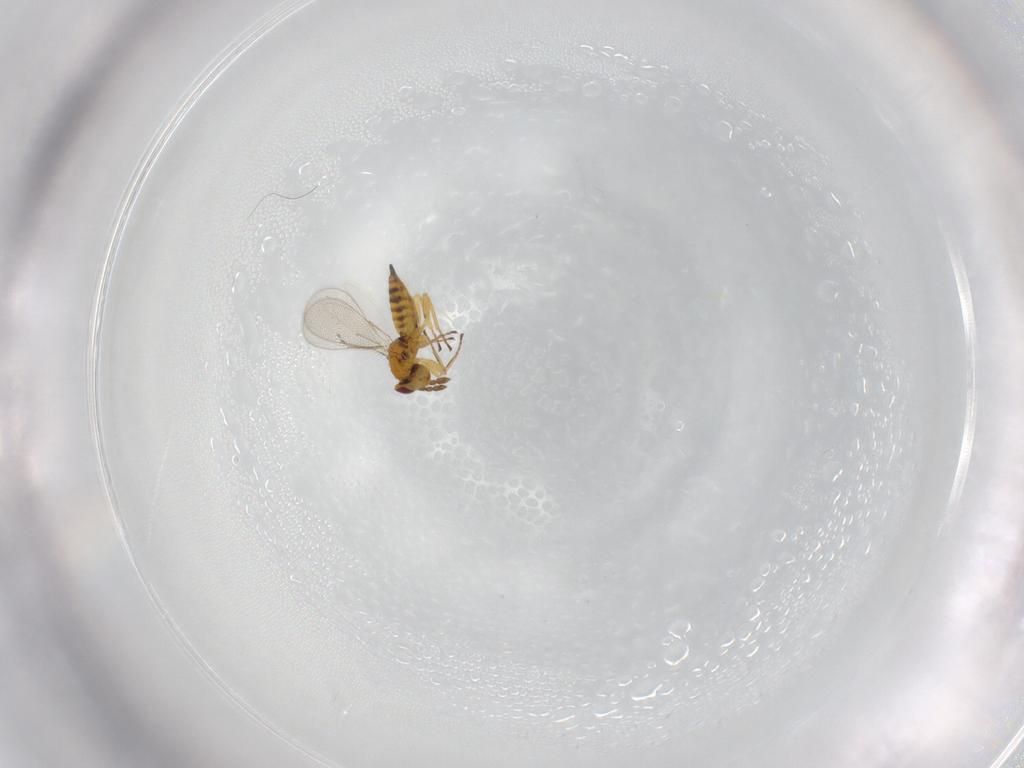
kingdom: Animalia
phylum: Arthropoda
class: Insecta
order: Hymenoptera
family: Eulophidae
